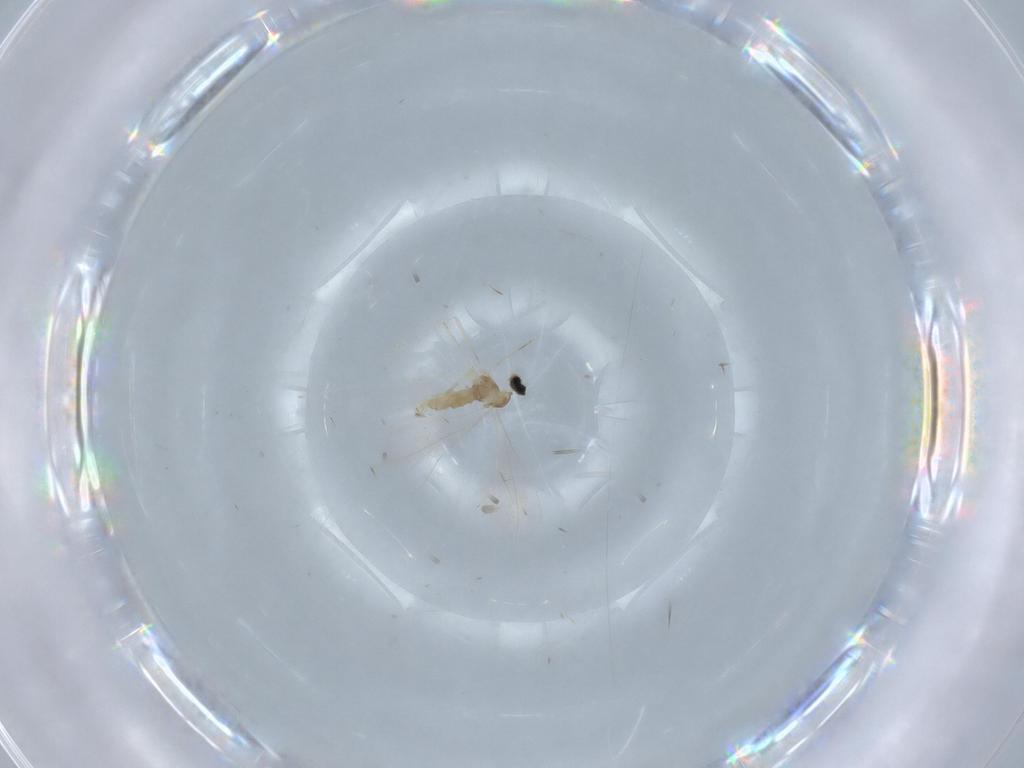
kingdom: Animalia
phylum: Arthropoda
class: Insecta
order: Diptera
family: Cecidomyiidae
